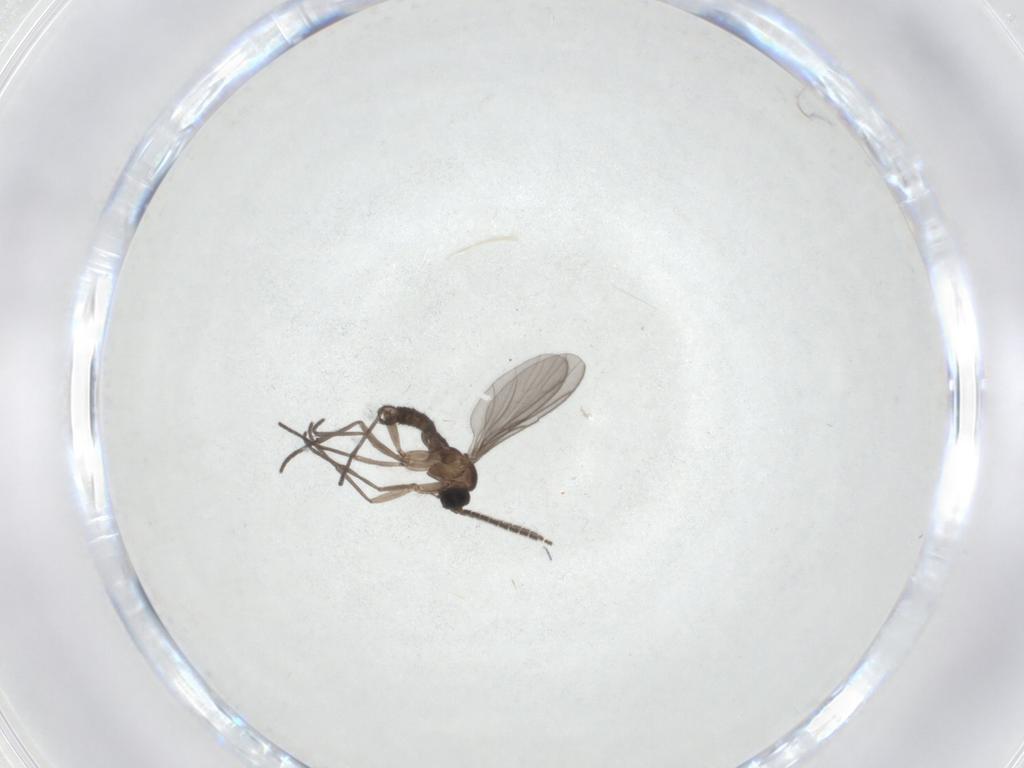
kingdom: Animalia
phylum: Arthropoda
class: Insecta
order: Diptera
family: Sciaridae
